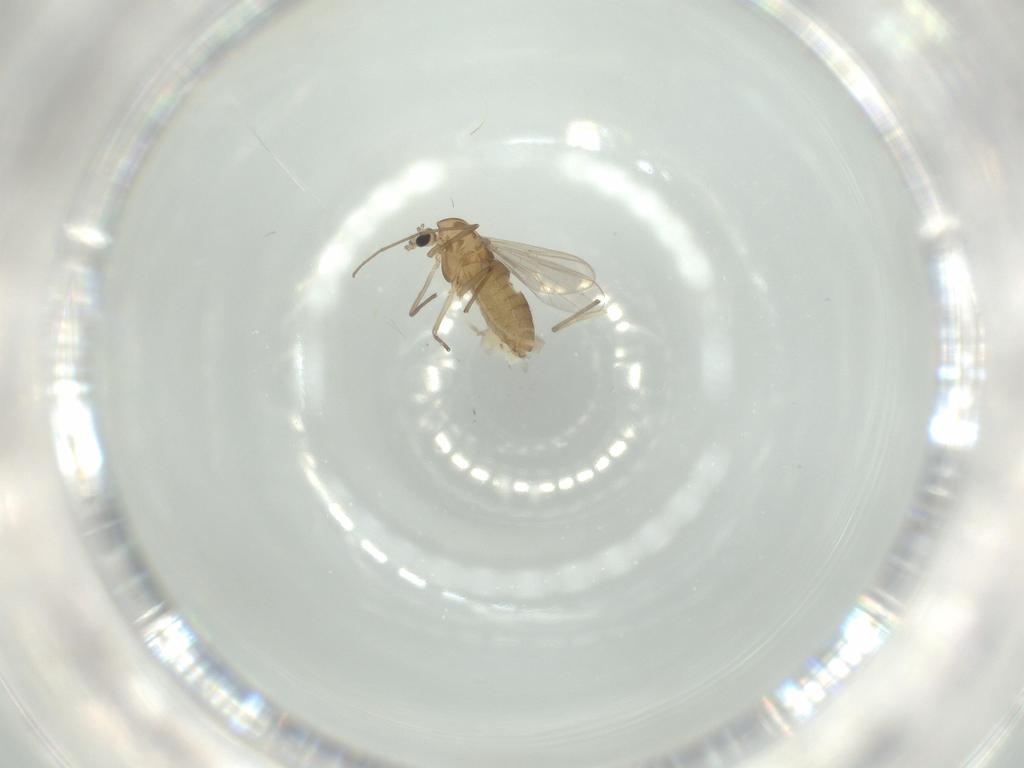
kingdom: Animalia
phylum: Arthropoda
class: Insecta
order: Diptera
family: Chironomidae
